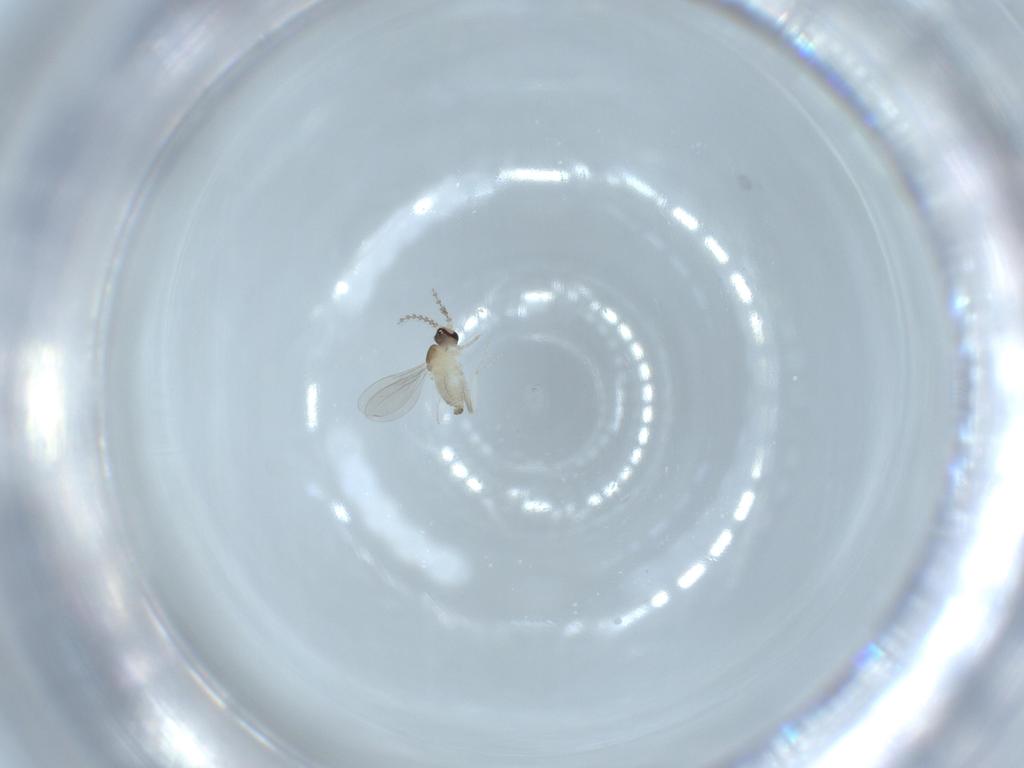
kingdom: Animalia
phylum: Arthropoda
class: Insecta
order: Diptera
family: Cecidomyiidae
